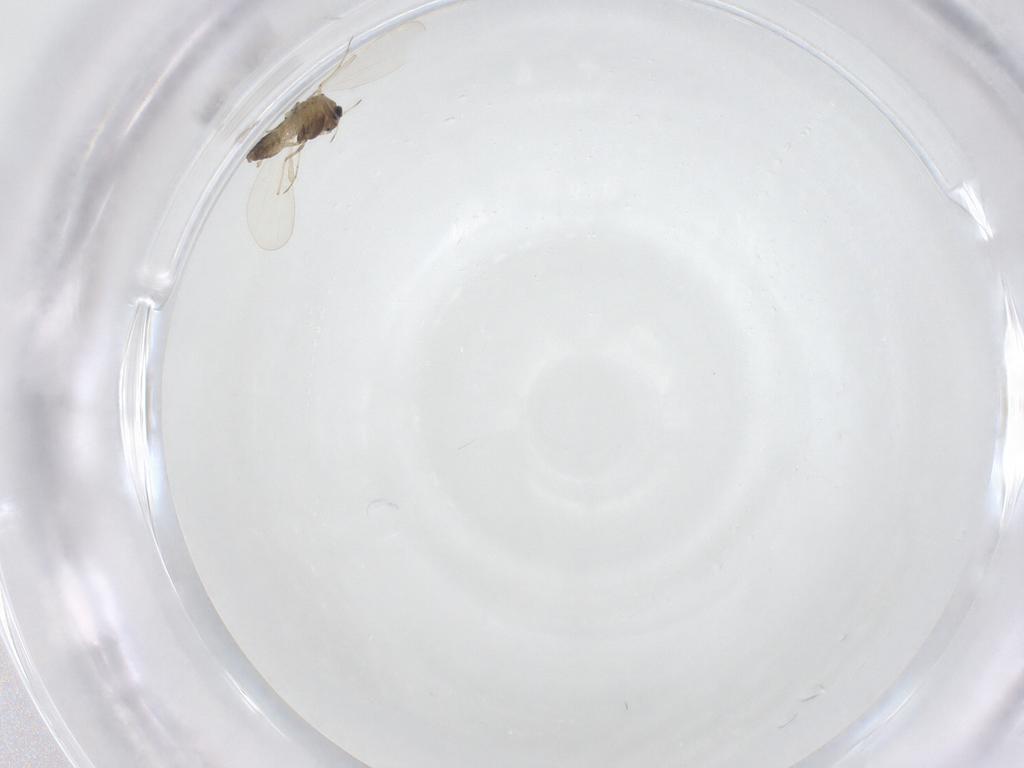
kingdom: Animalia
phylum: Arthropoda
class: Insecta
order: Diptera
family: Chironomidae
